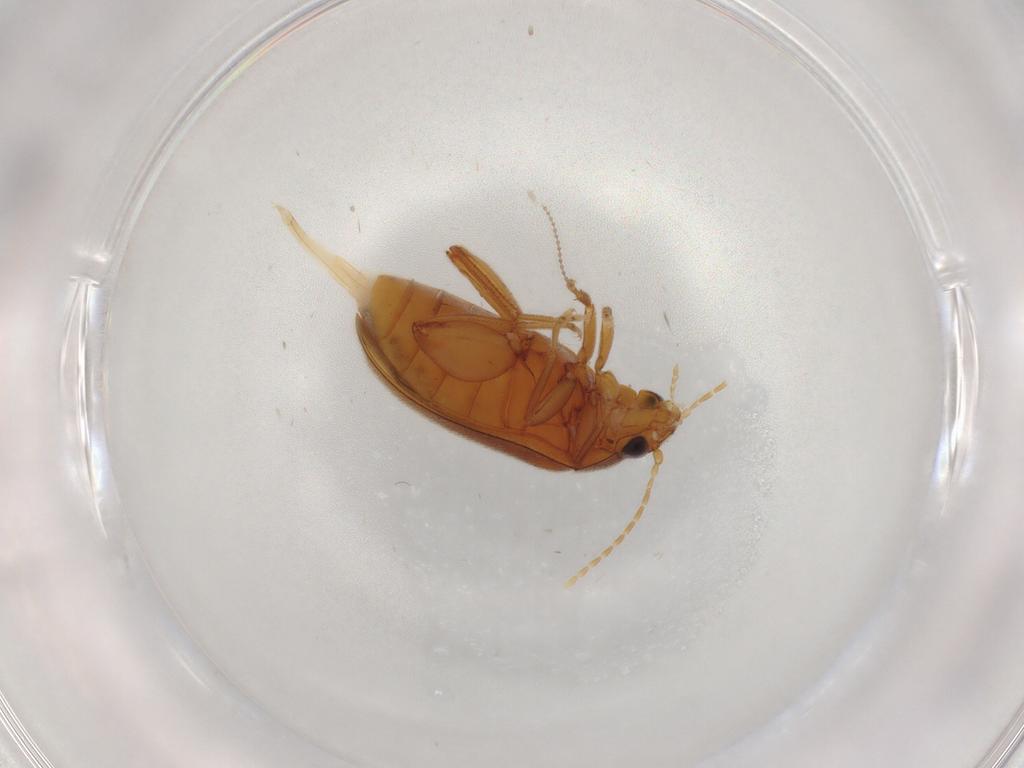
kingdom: Animalia
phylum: Arthropoda
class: Insecta
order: Coleoptera
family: Scirtidae
